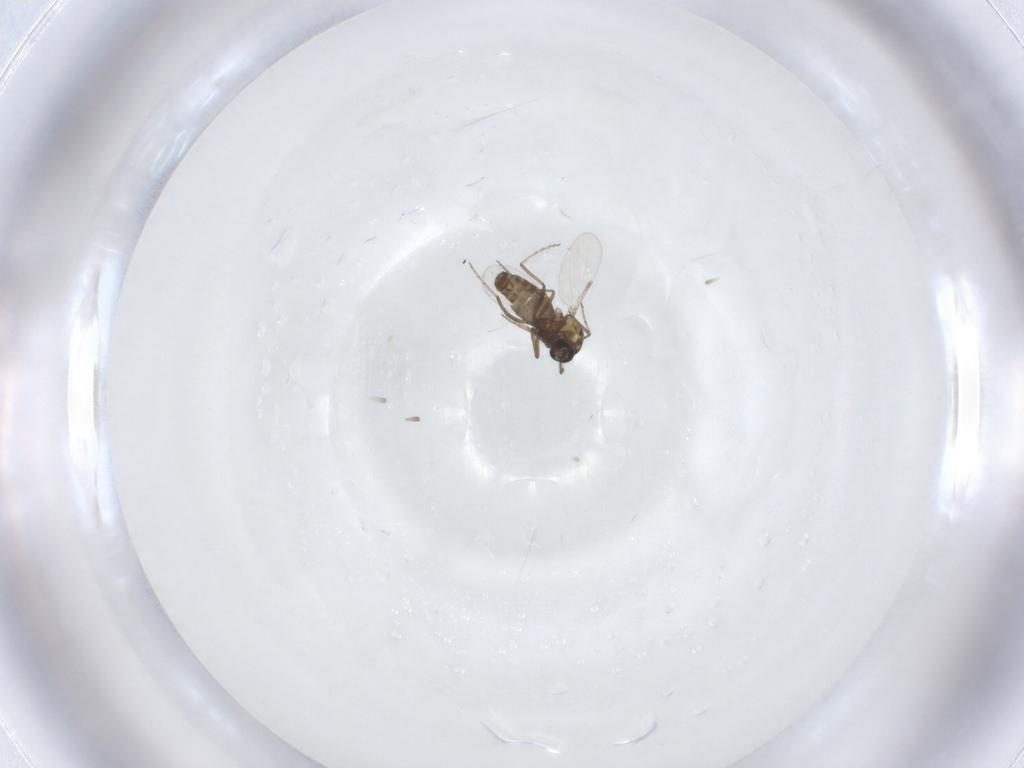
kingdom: Animalia
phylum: Arthropoda
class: Insecta
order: Diptera
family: Ceratopogonidae
